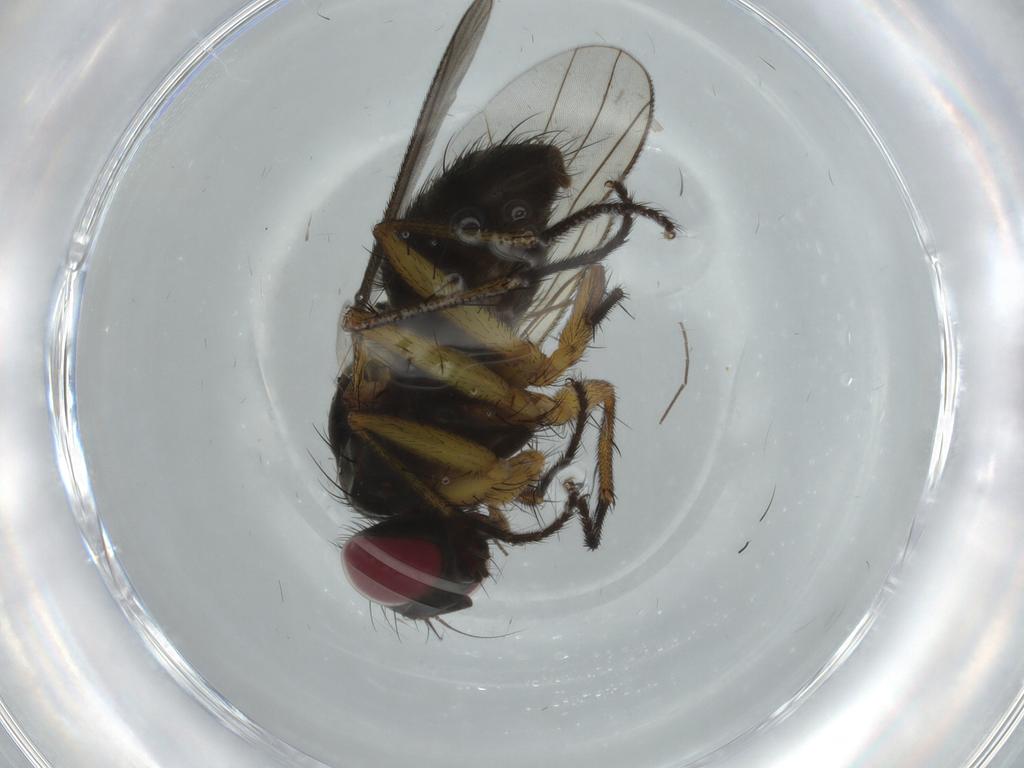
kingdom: Animalia
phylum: Arthropoda
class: Insecta
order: Diptera
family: Muscidae
